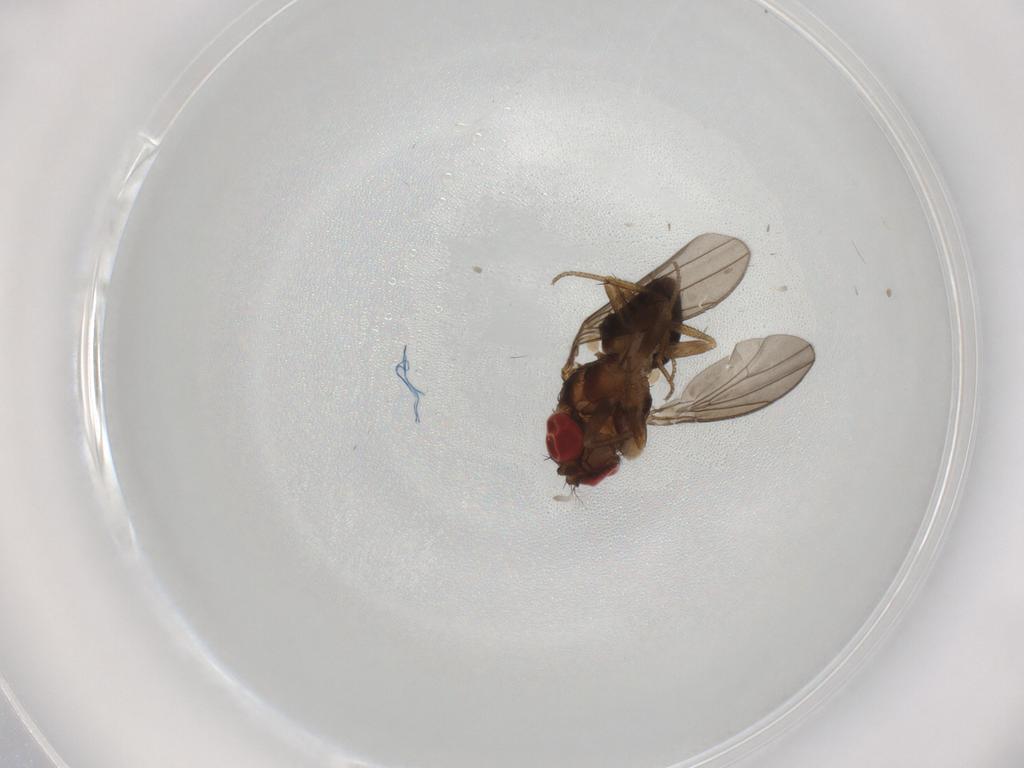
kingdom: Animalia
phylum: Arthropoda
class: Insecta
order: Diptera
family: Drosophilidae
